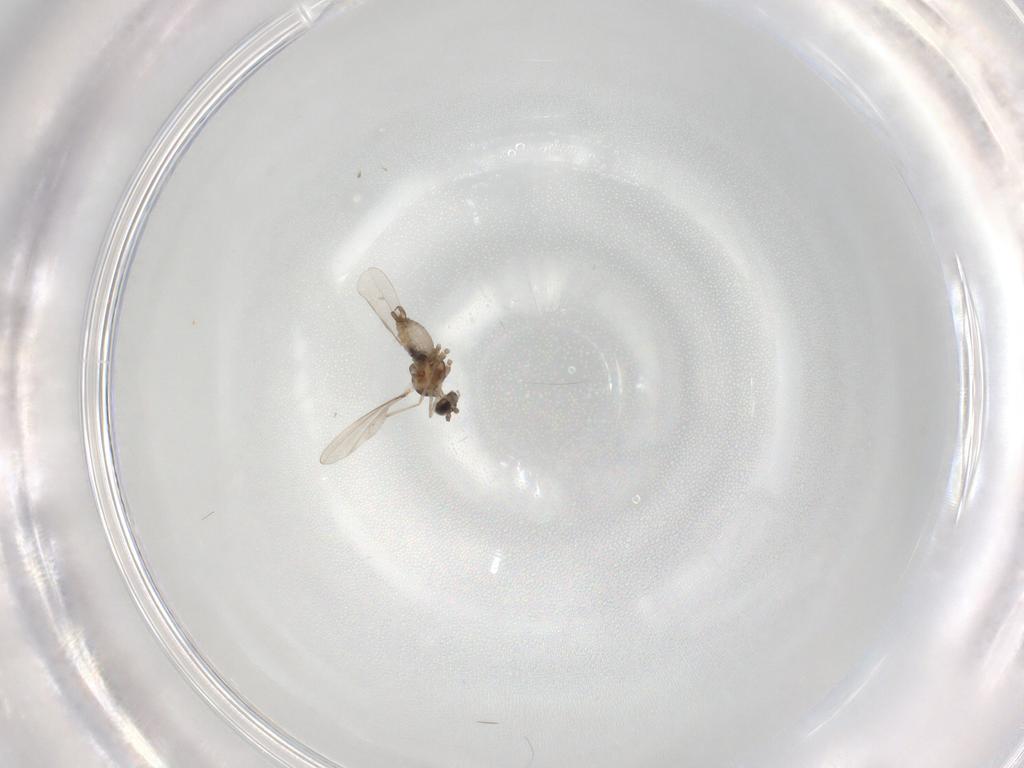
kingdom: Animalia
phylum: Arthropoda
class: Insecta
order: Diptera
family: Cecidomyiidae
